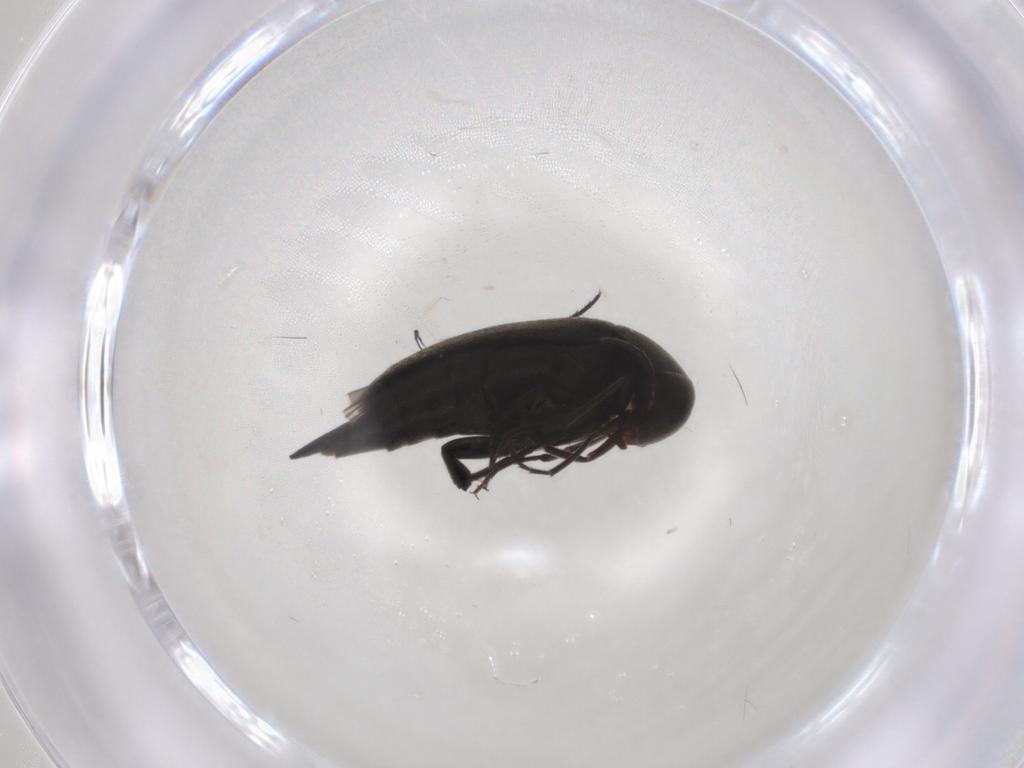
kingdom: Animalia
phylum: Arthropoda
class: Insecta
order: Coleoptera
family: Mordellidae
